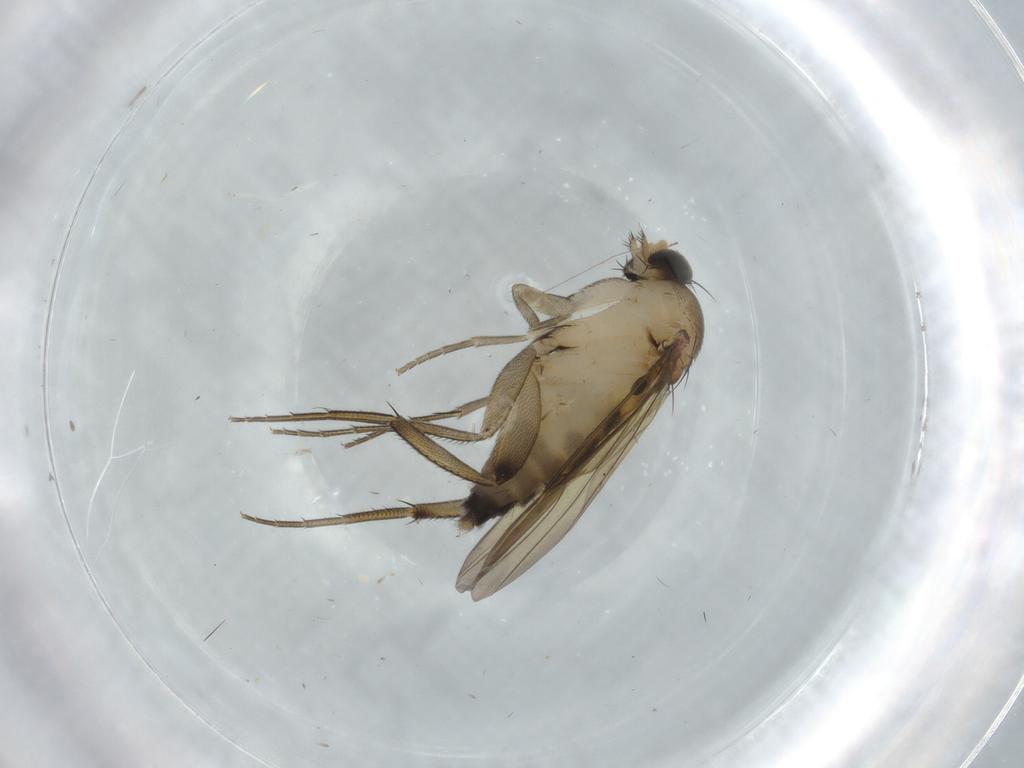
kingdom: Animalia
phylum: Arthropoda
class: Insecta
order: Diptera
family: Phoridae
